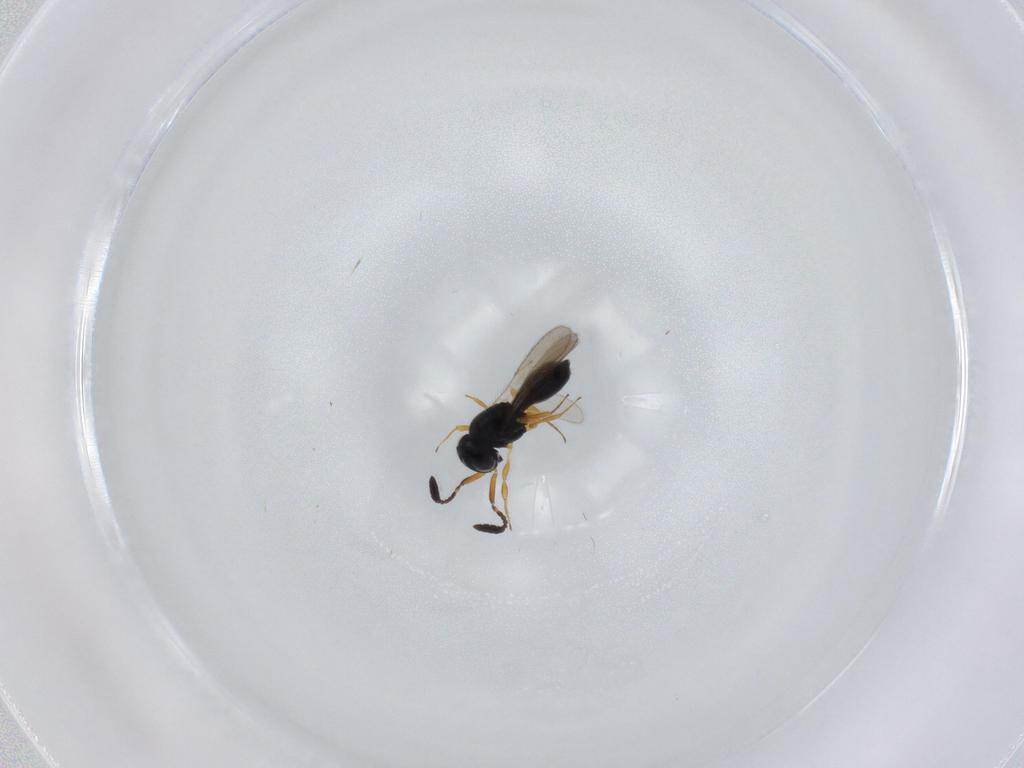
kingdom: Animalia
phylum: Arthropoda
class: Insecta
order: Hymenoptera
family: Scelionidae
